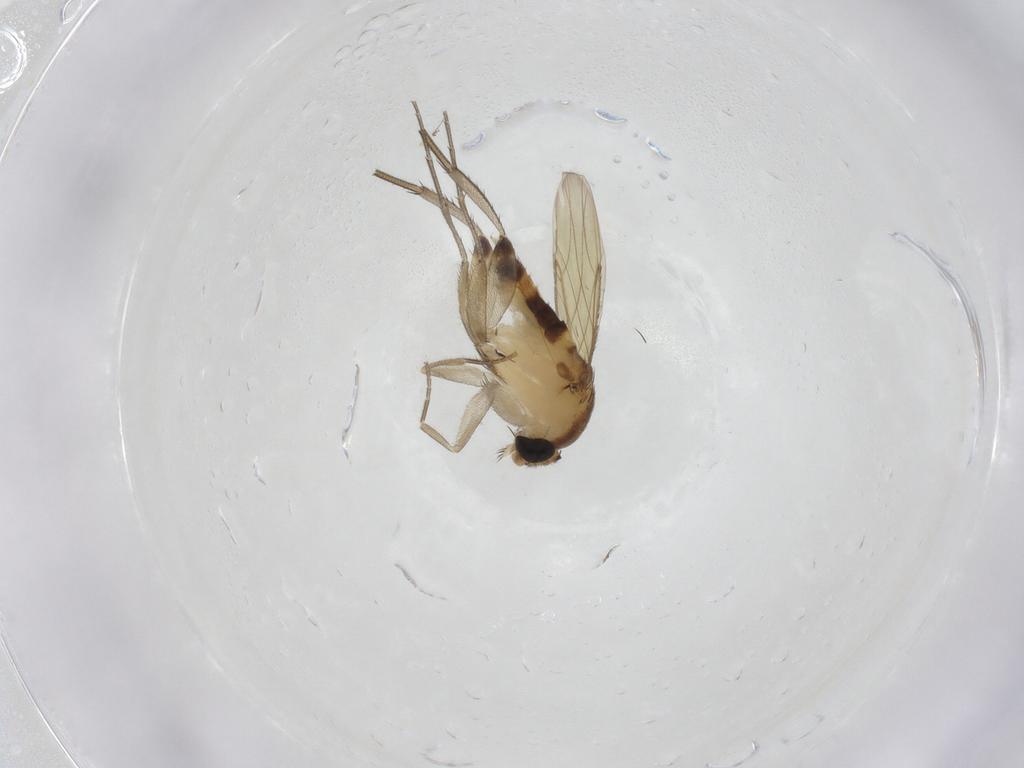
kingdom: Animalia
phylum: Arthropoda
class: Insecta
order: Diptera
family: Phoridae
